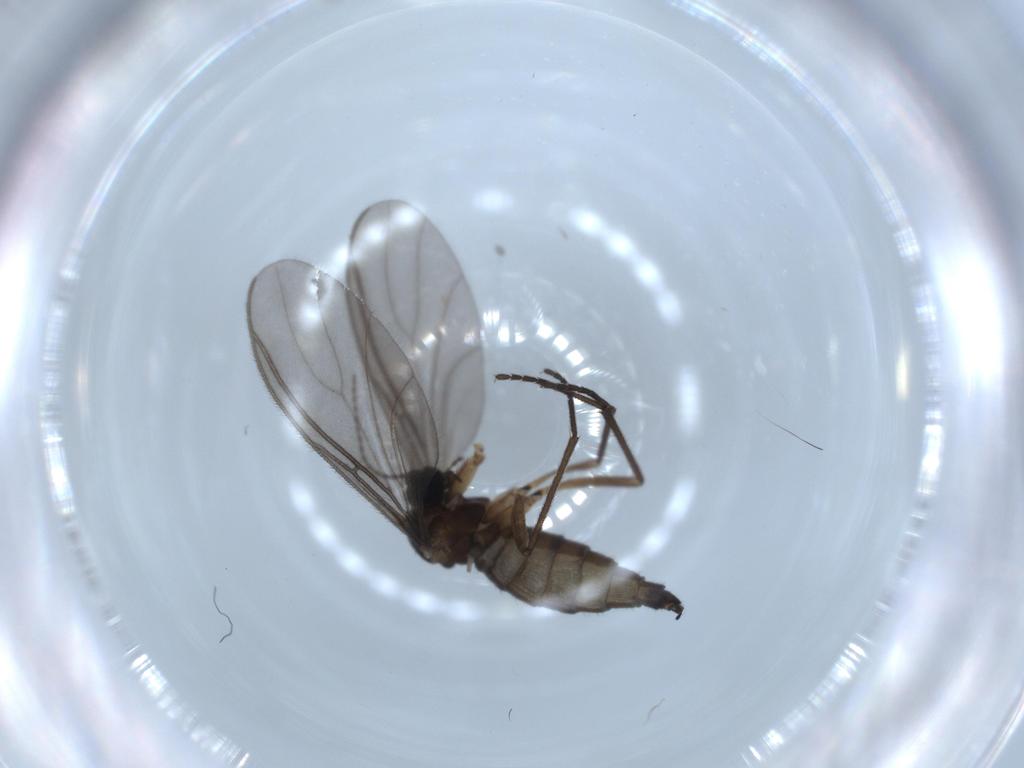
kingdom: Animalia
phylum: Arthropoda
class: Insecta
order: Diptera
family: Sciaridae
